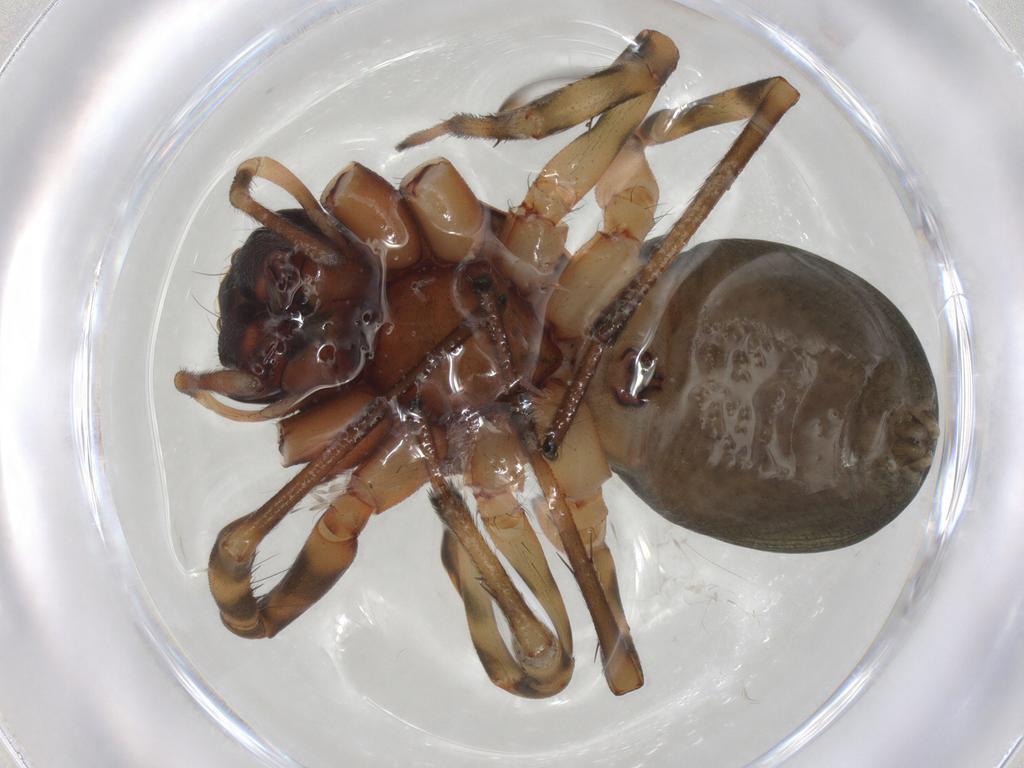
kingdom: Animalia
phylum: Arthropoda
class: Arachnida
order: Araneae
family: Trachelidae
